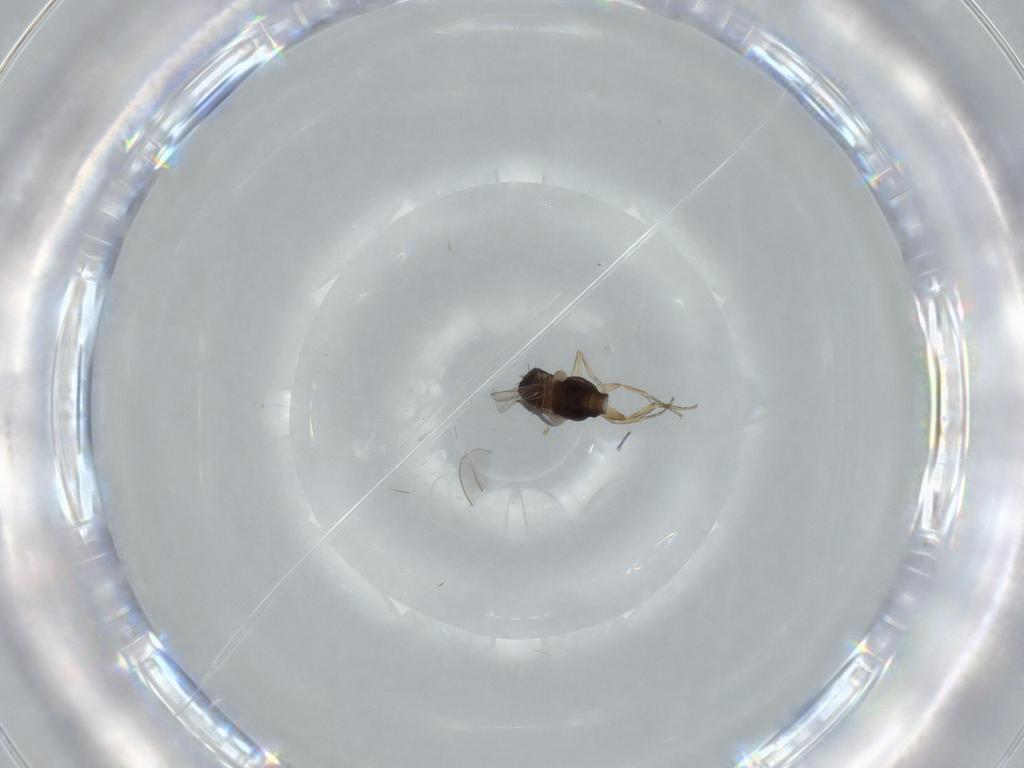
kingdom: Animalia
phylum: Arthropoda
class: Insecta
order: Diptera
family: Phoridae
